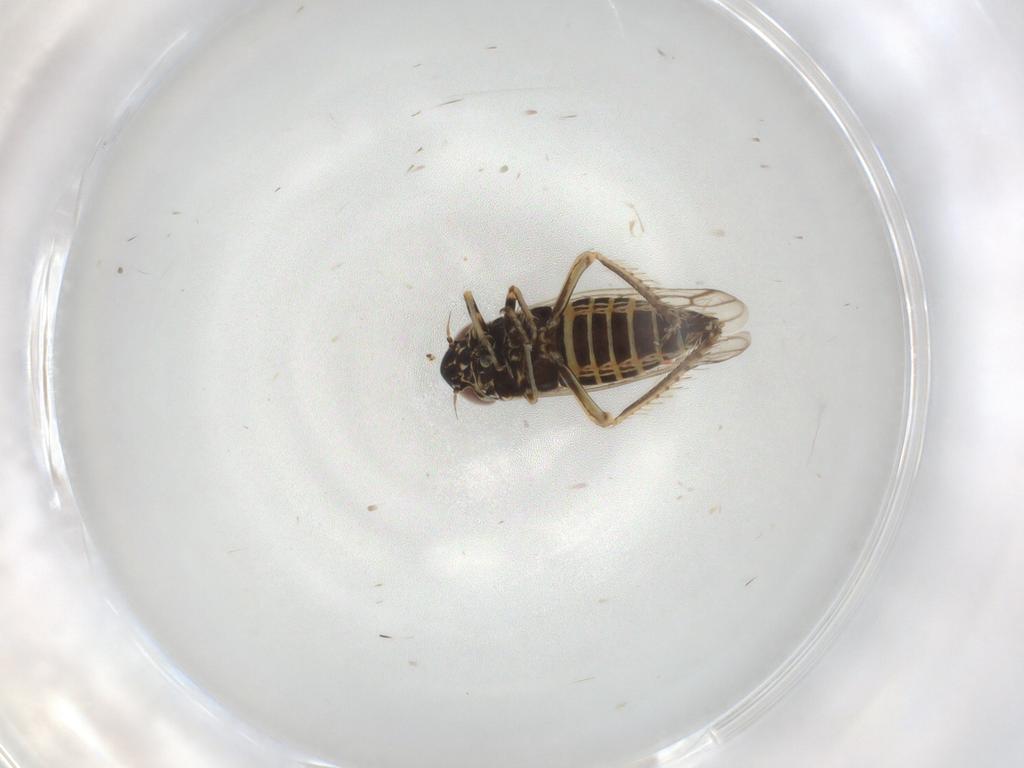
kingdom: Animalia
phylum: Arthropoda
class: Insecta
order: Hemiptera
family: Cicadellidae
